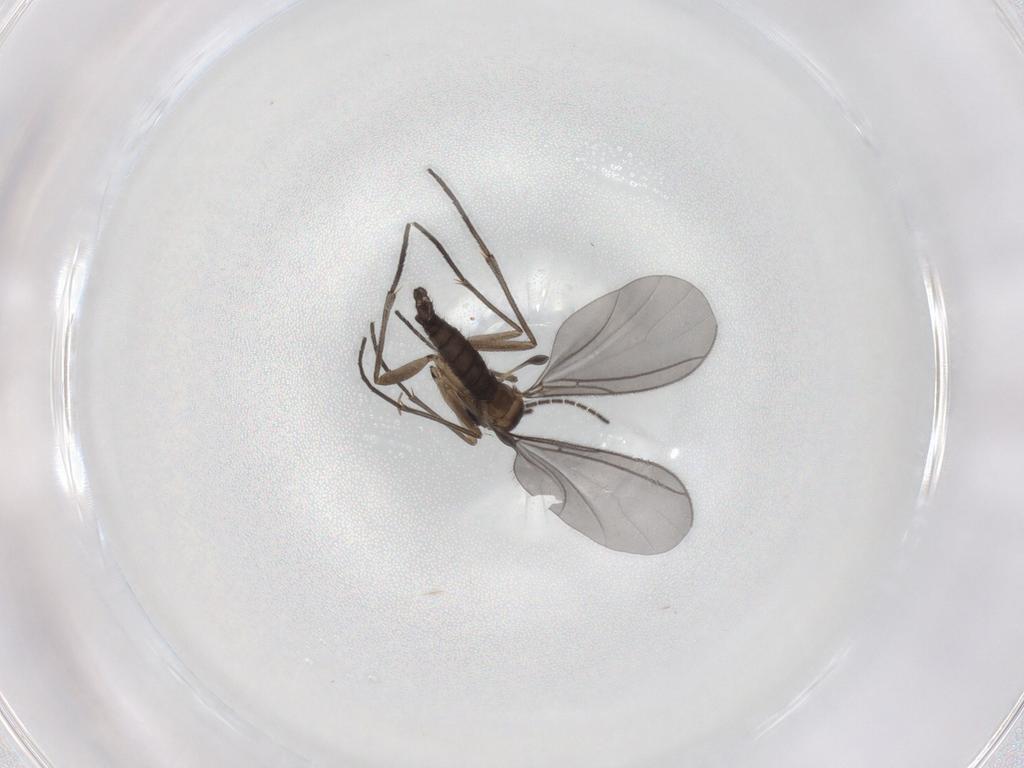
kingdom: Animalia
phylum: Arthropoda
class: Insecta
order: Diptera
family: Sciaridae
